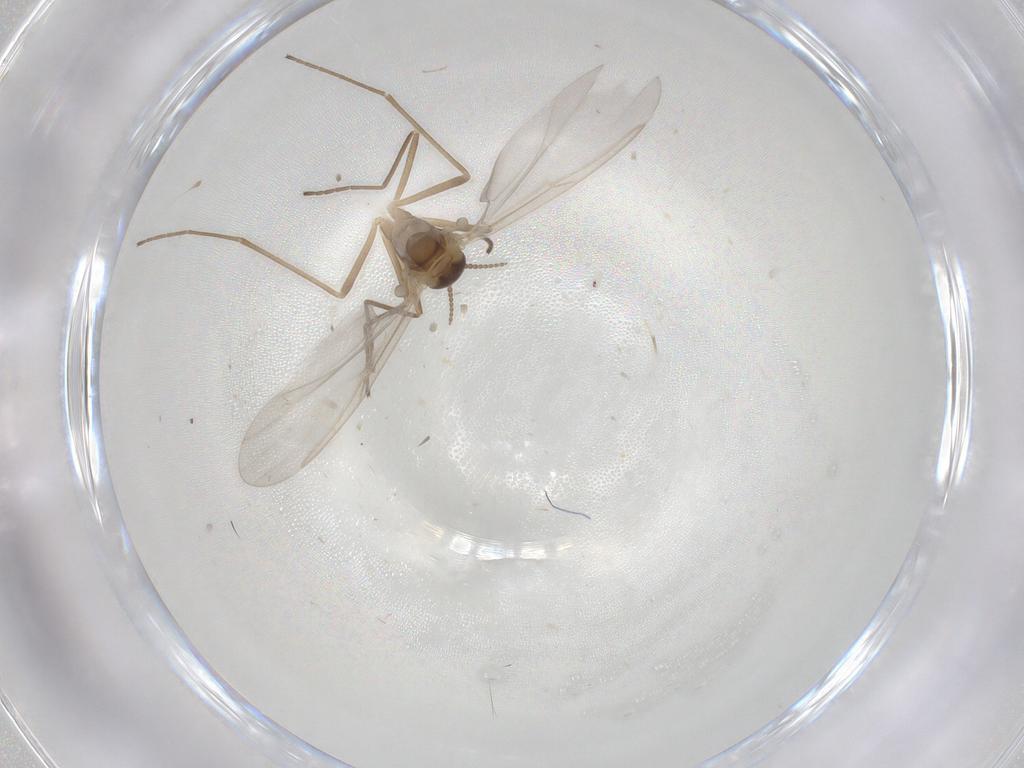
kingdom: Animalia
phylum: Arthropoda
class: Insecta
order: Diptera
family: Cecidomyiidae
